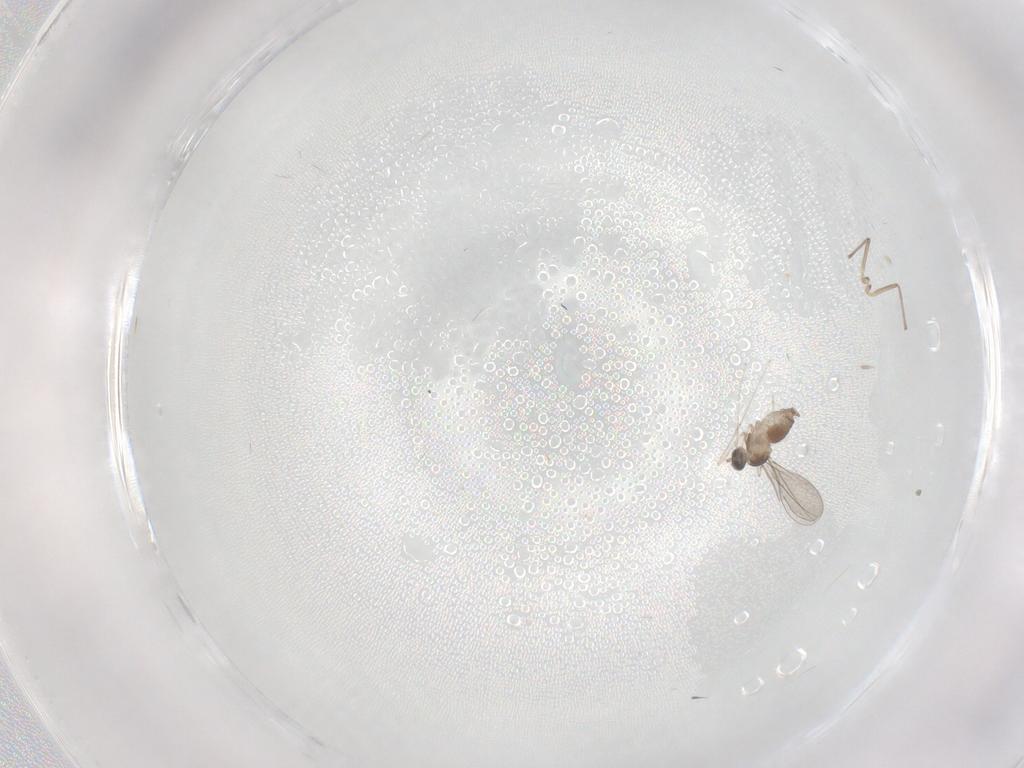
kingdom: Animalia
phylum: Arthropoda
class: Insecta
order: Diptera
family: Chironomidae
